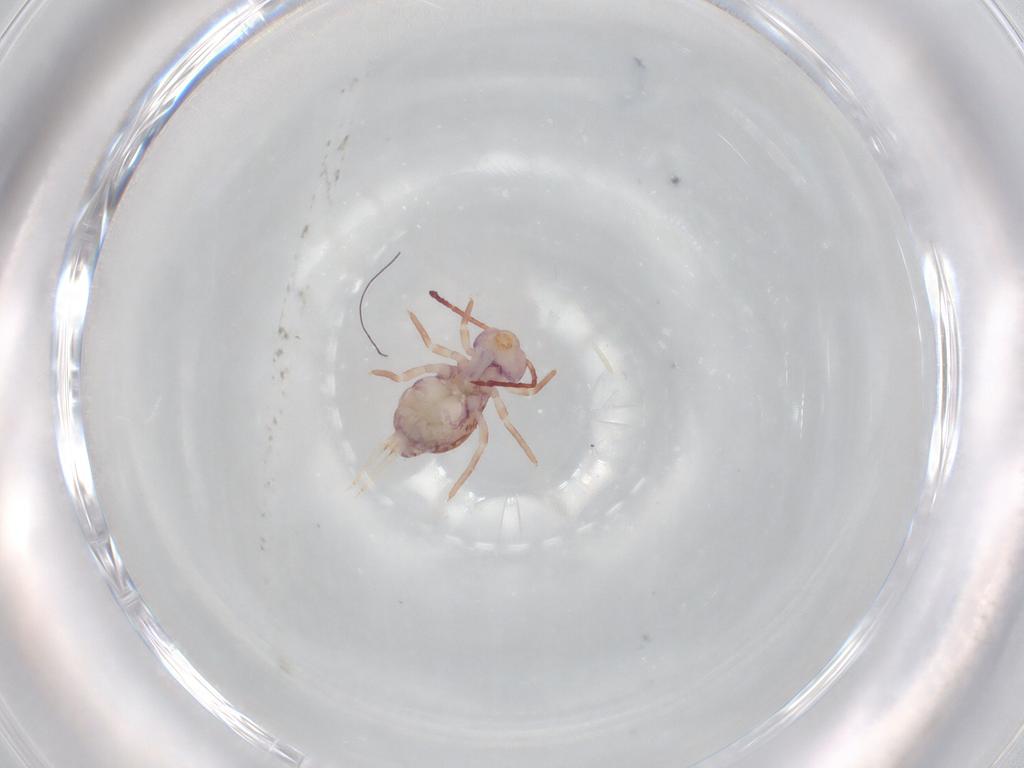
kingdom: Animalia
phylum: Arthropoda
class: Collembola
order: Symphypleona
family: Dicyrtomidae
